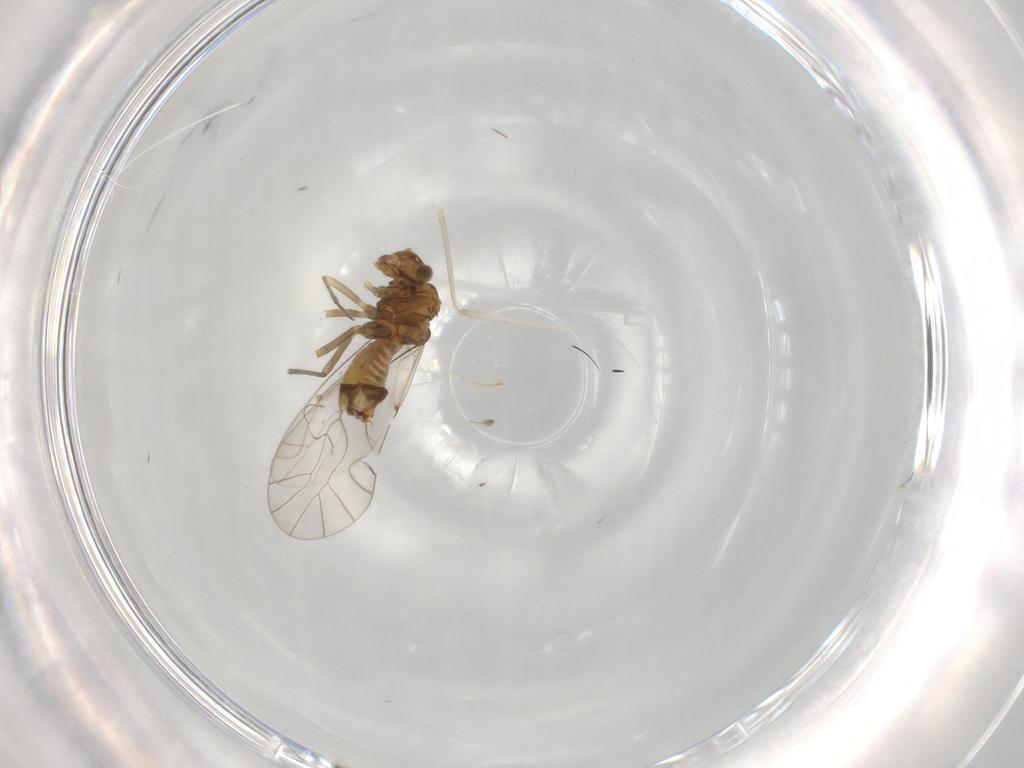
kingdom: Animalia
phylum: Arthropoda
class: Insecta
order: Psocodea
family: Lachesillidae
